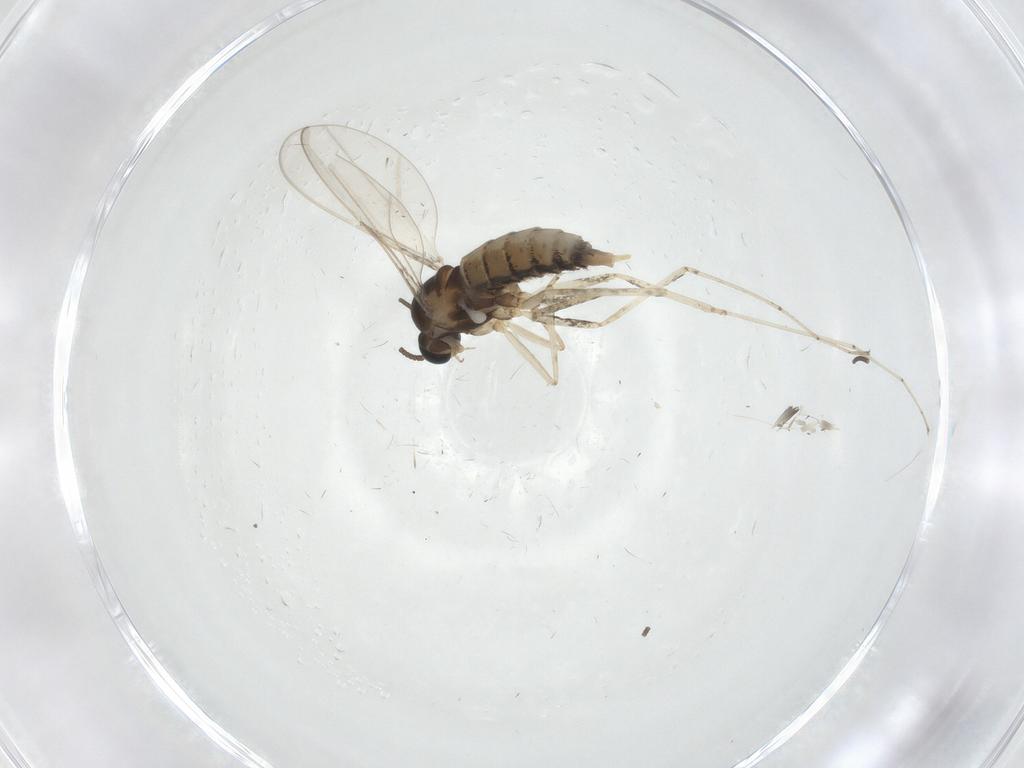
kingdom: Animalia
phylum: Arthropoda
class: Insecta
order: Diptera
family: Cecidomyiidae
